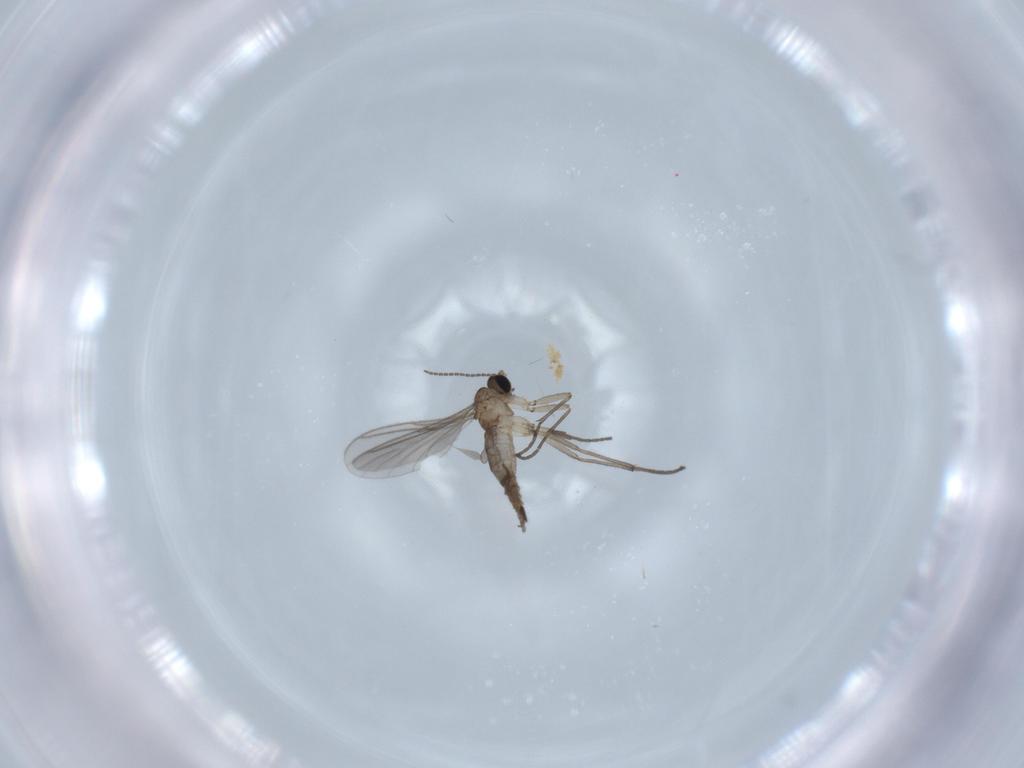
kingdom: Animalia
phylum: Arthropoda
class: Insecta
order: Diptera
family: Sciaridae
